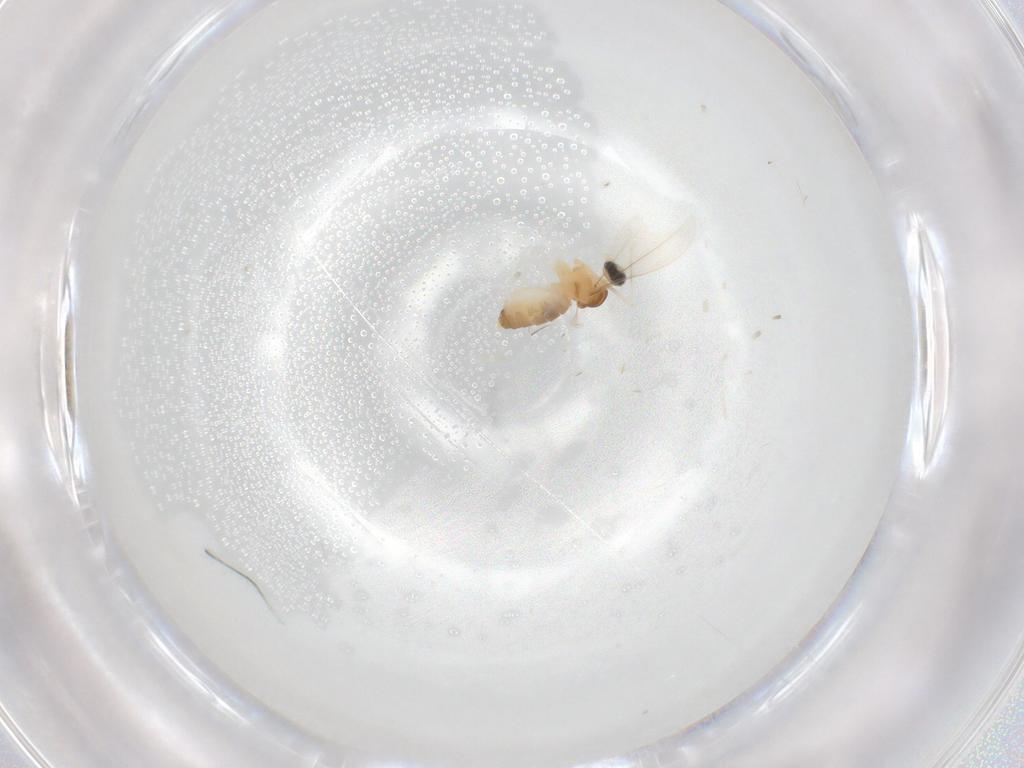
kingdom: Animalia
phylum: Arthropoda
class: Insecta
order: Diptera
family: Cecidomyiidae
